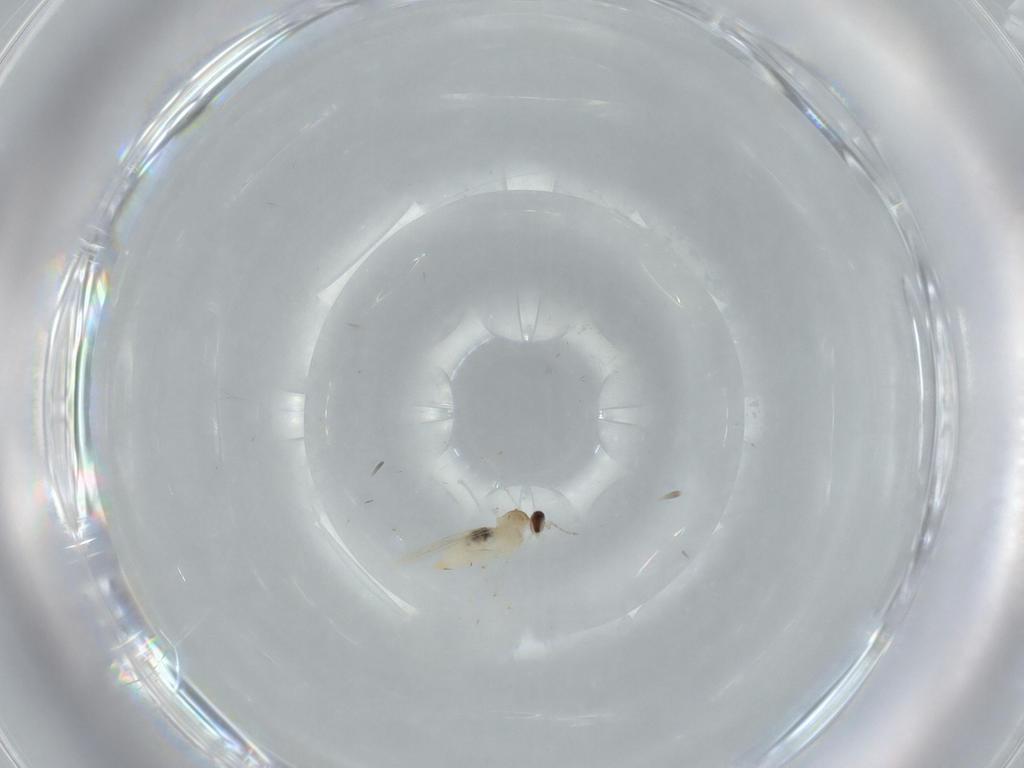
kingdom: Animalia
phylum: Arthropoda
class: Insecta
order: Diptera
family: Cecidomyiidae
